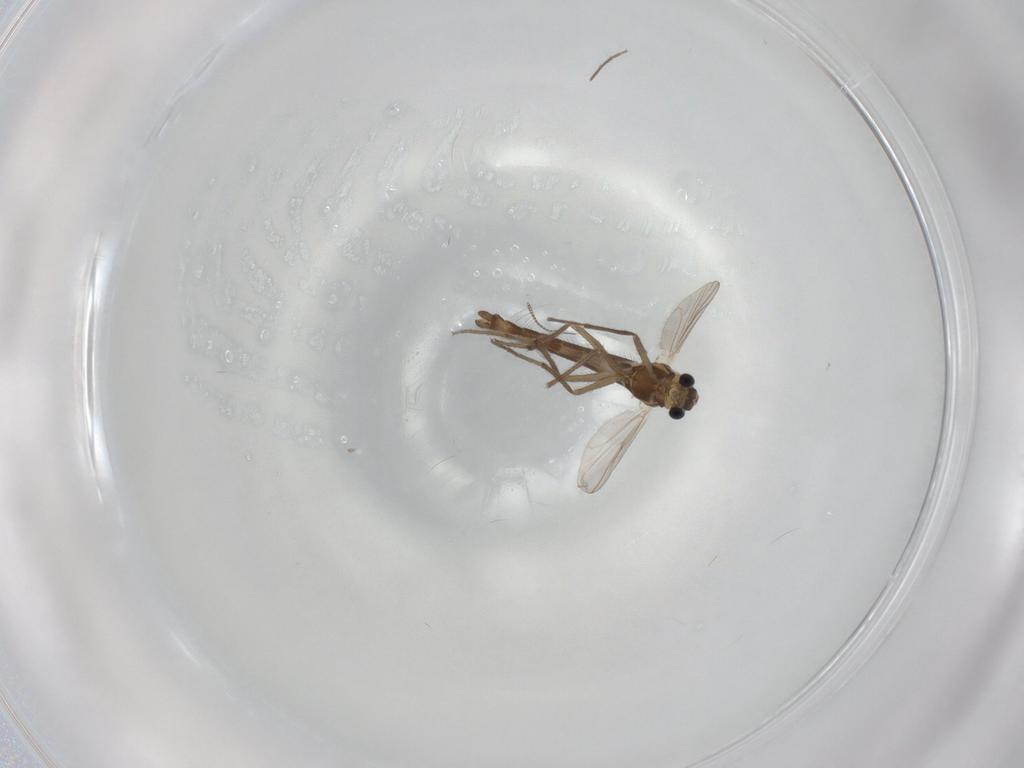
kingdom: Animalia
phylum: Arthropoda
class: Insecta
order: Diptera
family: Chironomidae
